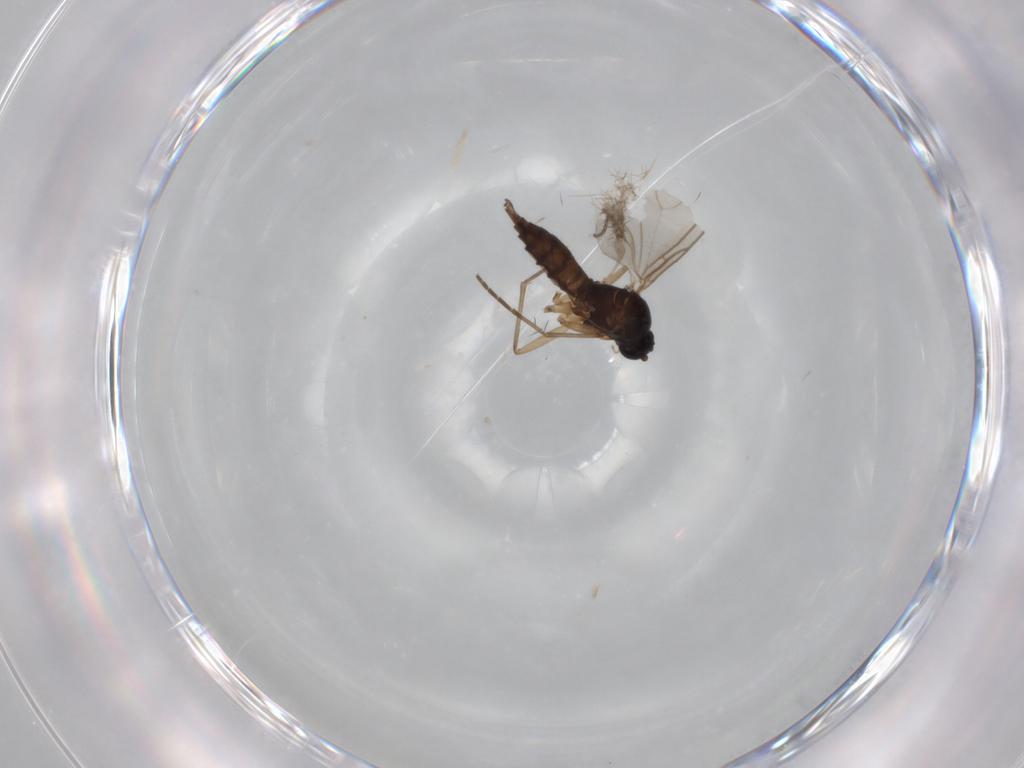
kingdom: Animalia
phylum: Arthropoda
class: Insecta
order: Diptera
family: Sciaridae
